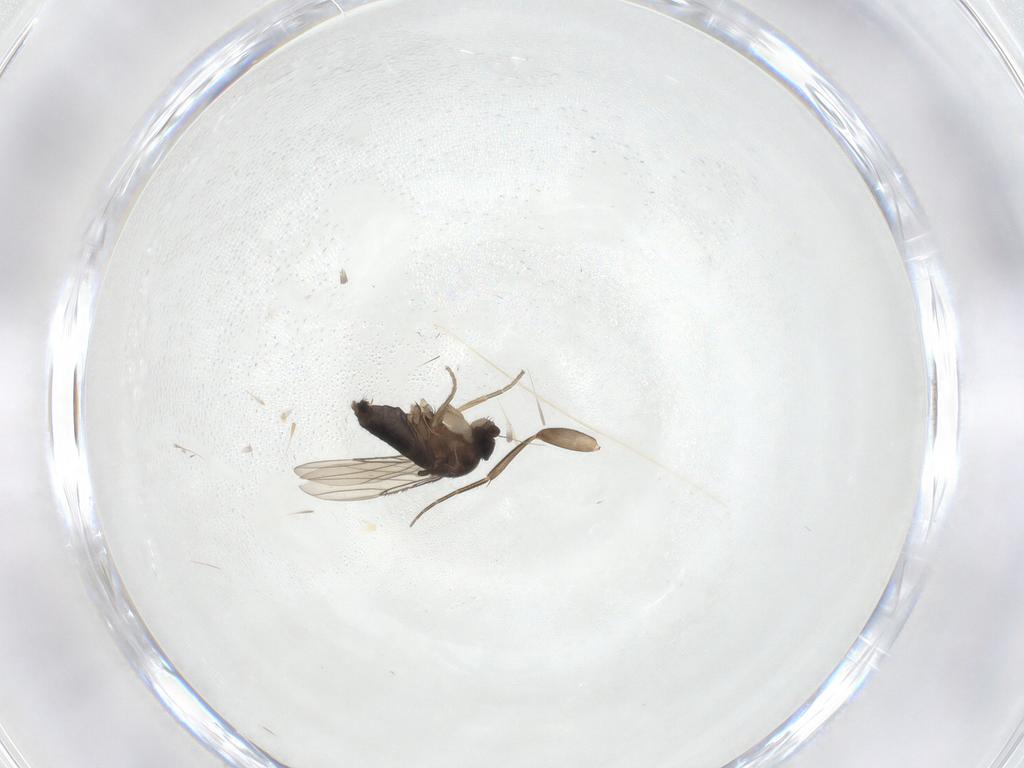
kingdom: Animalia
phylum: Arthropoda
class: Insecta
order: Diptera
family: Phoridae
